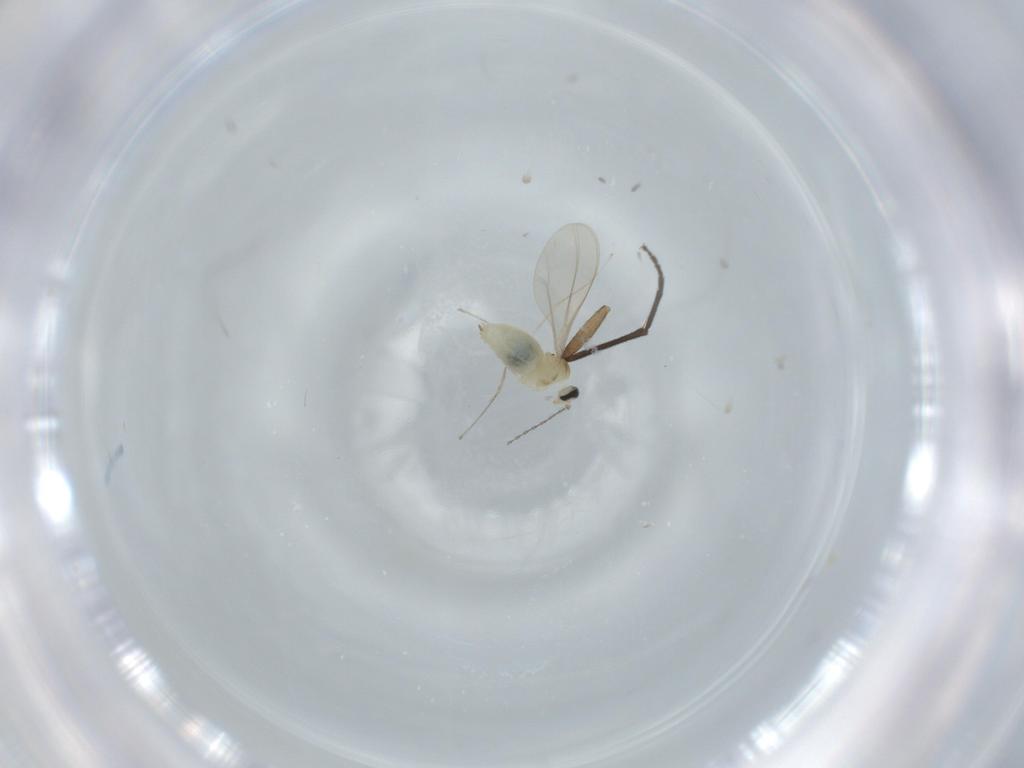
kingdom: Animalia
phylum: Arthropoda
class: Insecta
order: Diptera
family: Cecidomyiidae
